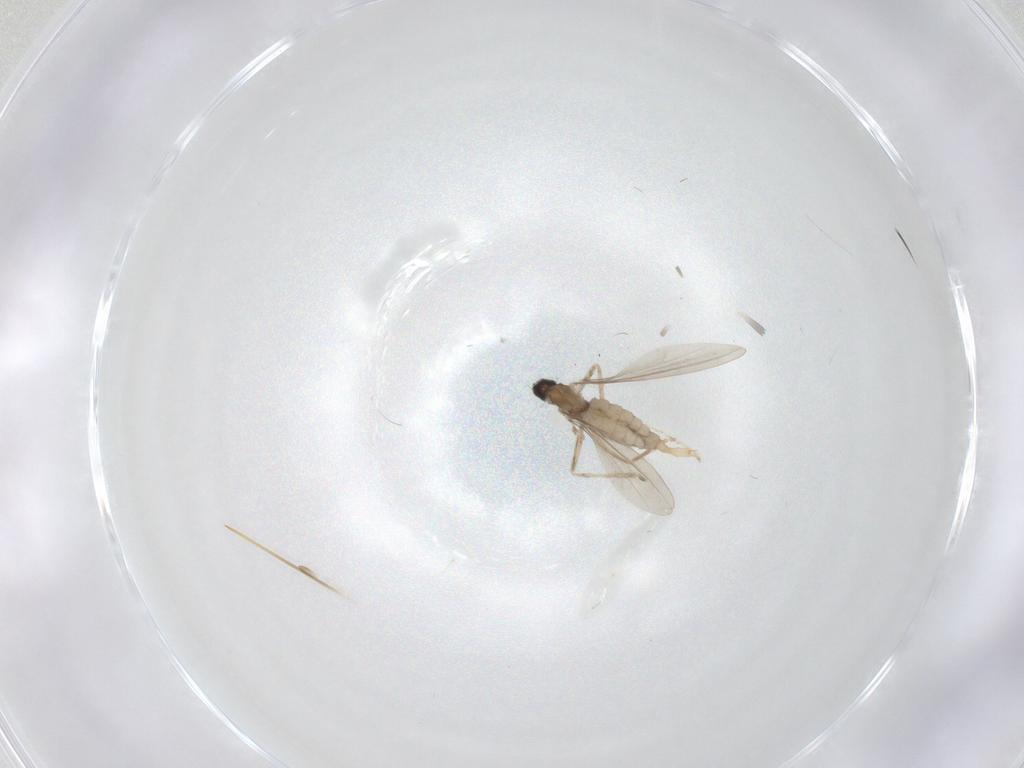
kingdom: Animalia
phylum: Arthropoda
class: Insecta
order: Diptera
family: Cecidomyiidae
